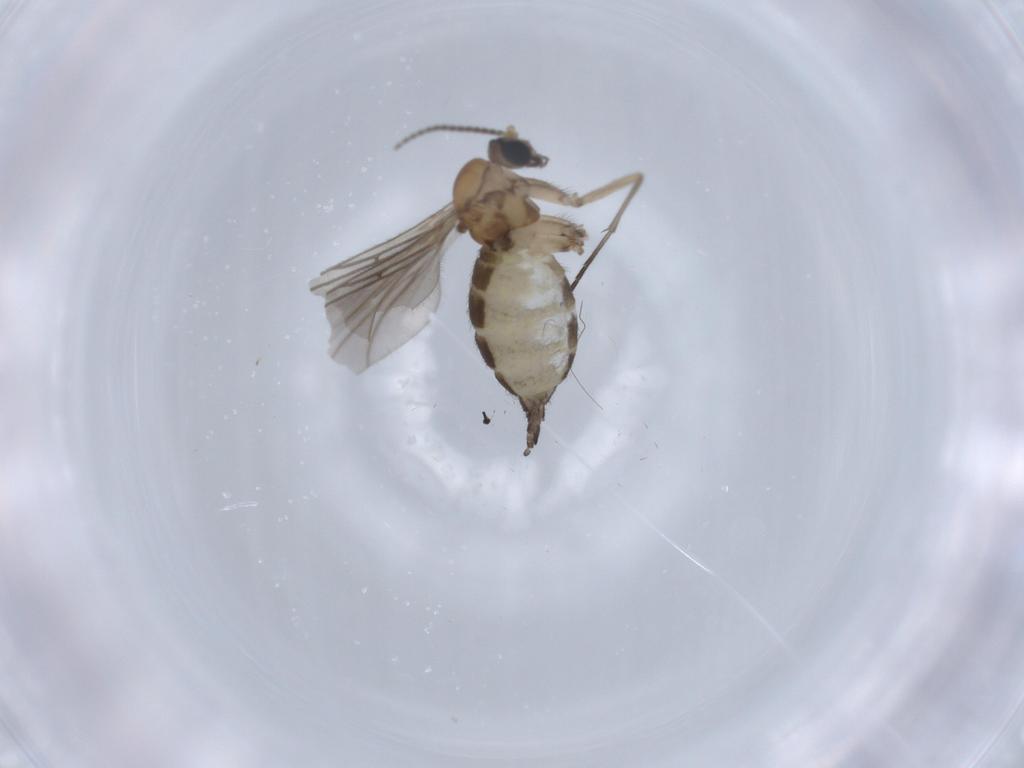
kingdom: Animalia
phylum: Arthropoda
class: Insecta
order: Diptera
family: Sciaridae
